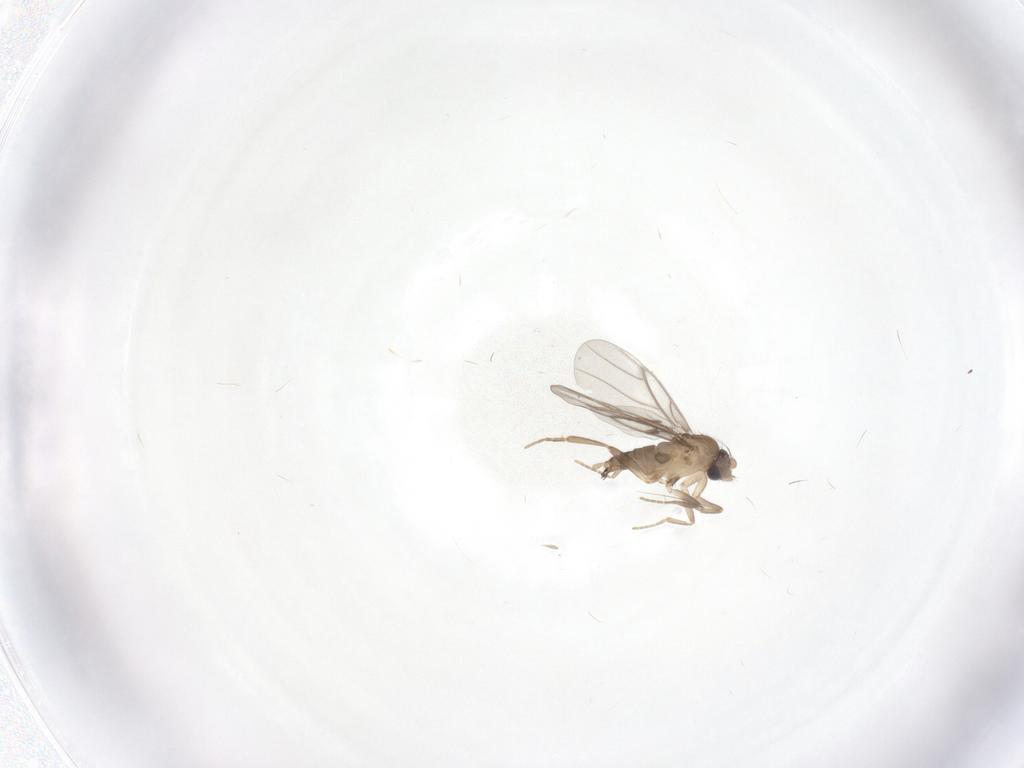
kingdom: Animalia
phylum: Arthropoda
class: Insecta
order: Diptera
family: Phoridae
